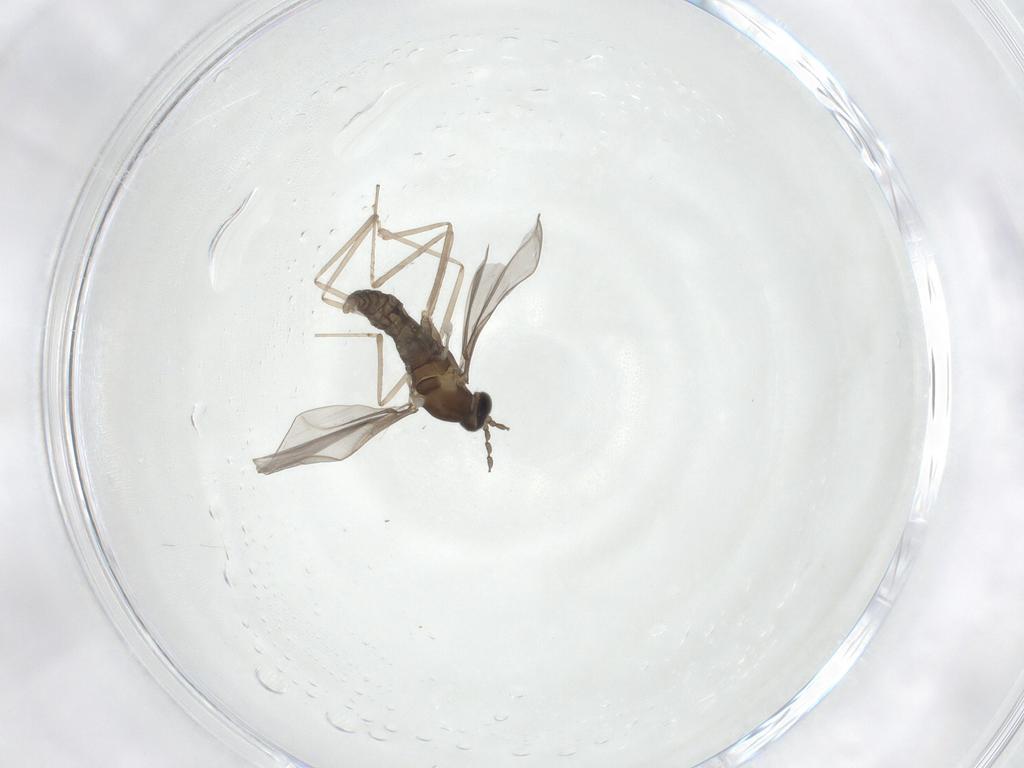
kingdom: Animalia
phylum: Arthropoda
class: Insecta
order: Diptera
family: Cecidomyiidae
